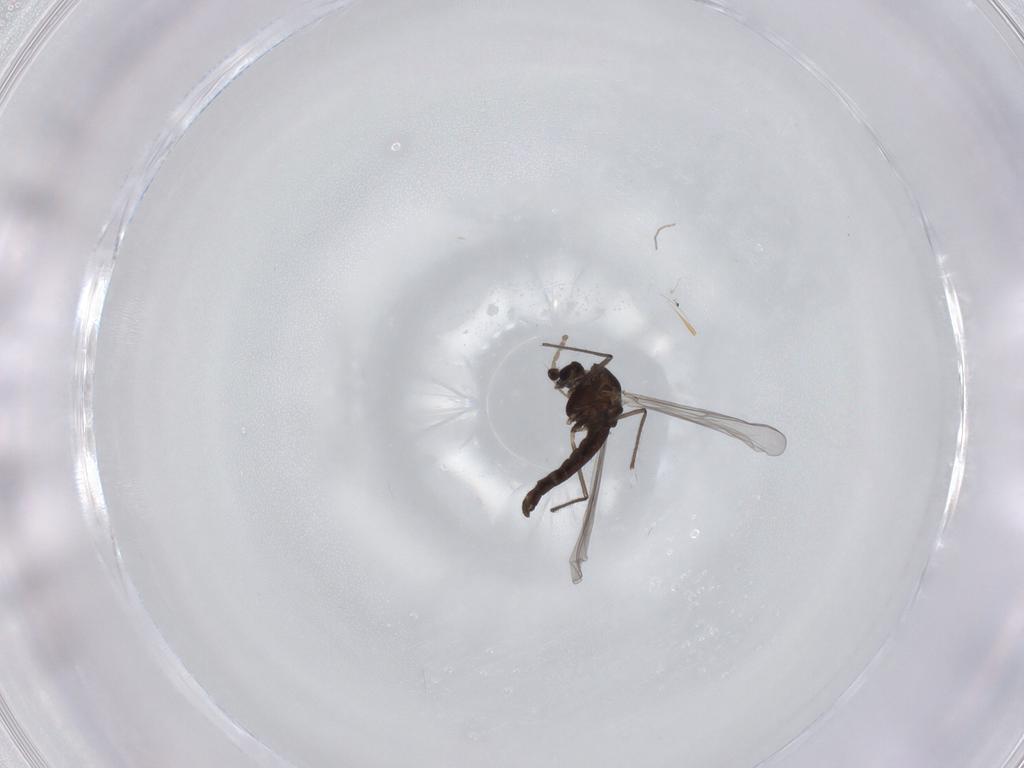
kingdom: Animalia
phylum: Arthropoda
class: Insecta
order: Diptera
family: Chironomidae
